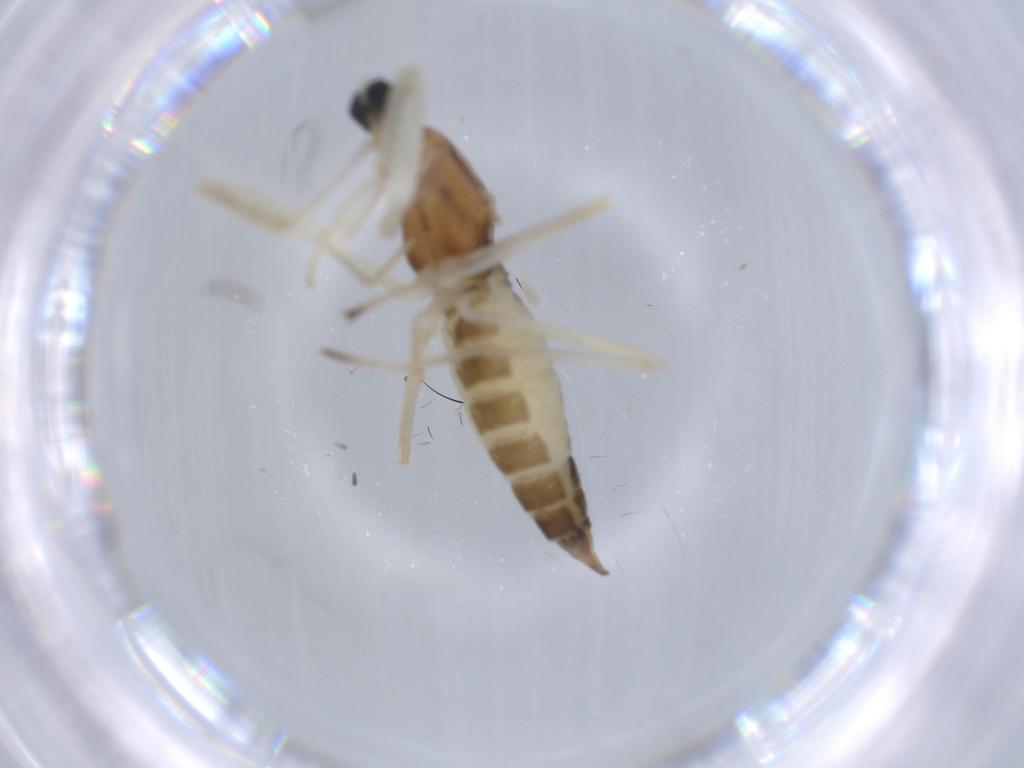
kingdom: Animalia
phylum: Arthropoda
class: Insecta
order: Diptera
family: Empididae
